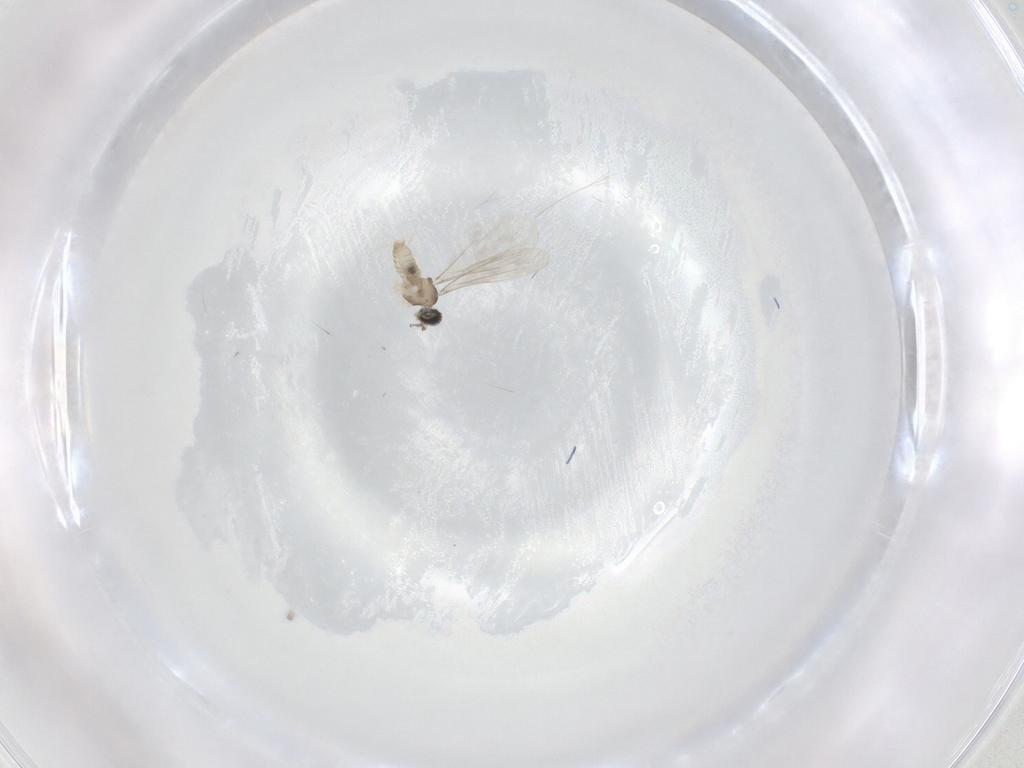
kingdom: Animalia
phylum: Arthropoda
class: Insecta
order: Diptera
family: Cecidomyiidae
